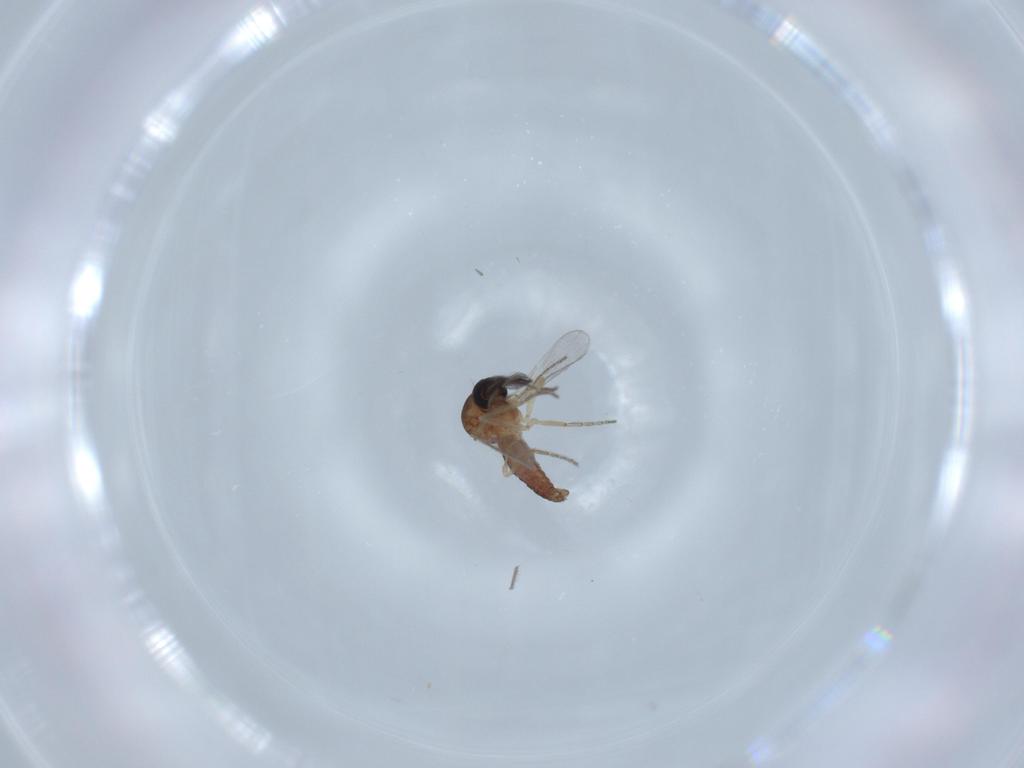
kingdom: Animalia
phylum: Arthropoda
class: Insecta
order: Diptera
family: Ceratopogonidae
